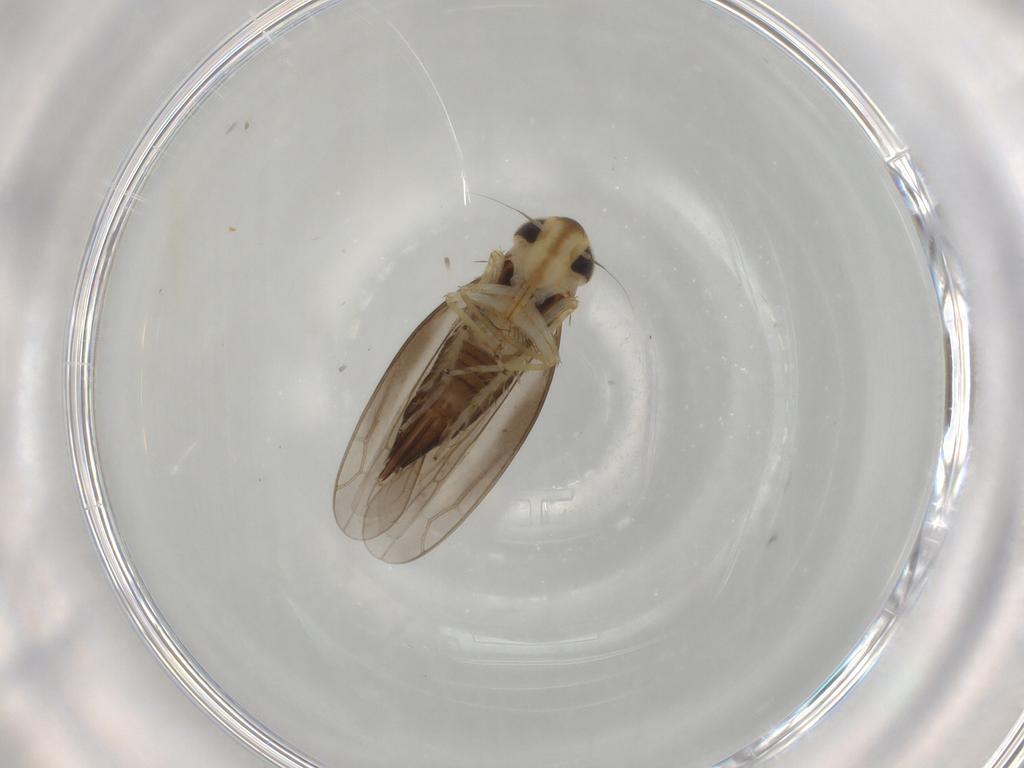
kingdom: Animalia
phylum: Arthropoda
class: Insecta
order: Hemiptera
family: Cicadellidae
